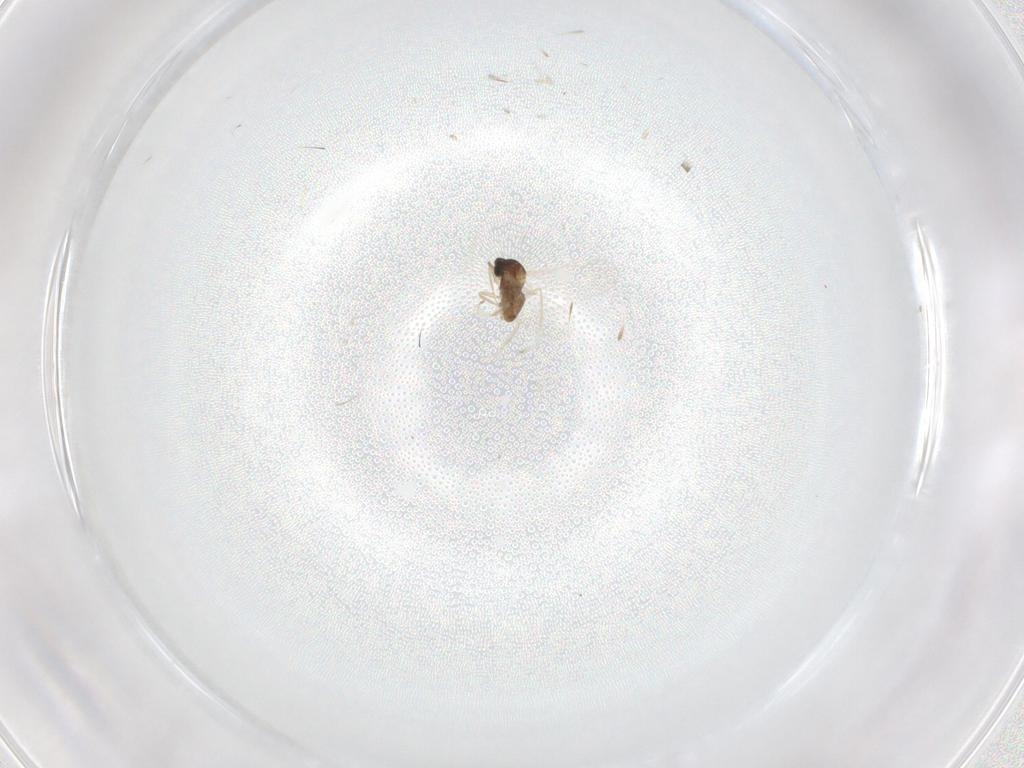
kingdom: Animalia
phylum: Arthropoda
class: Insecta
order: Diptera
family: Cecidomyiidae
